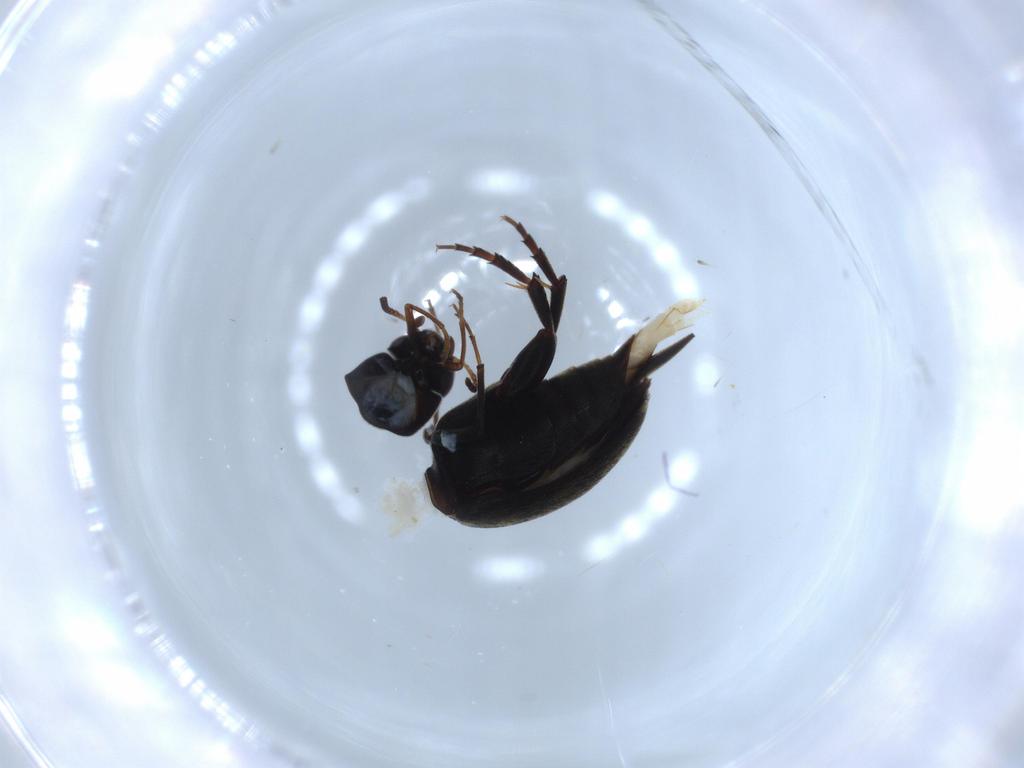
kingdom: Animalia
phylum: Arthropoda
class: Insecta
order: Coleoptera
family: Mordellidae
